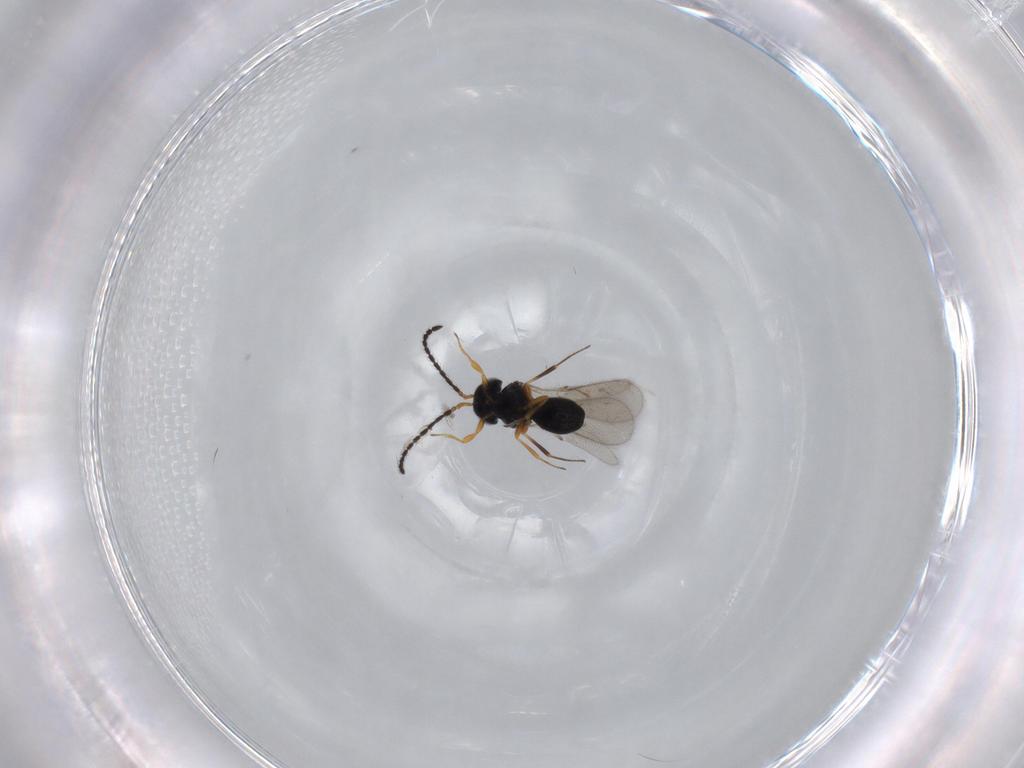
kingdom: Animalia
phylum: Arthropoda
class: Insecta
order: Hymenoptera
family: Scelionidae
